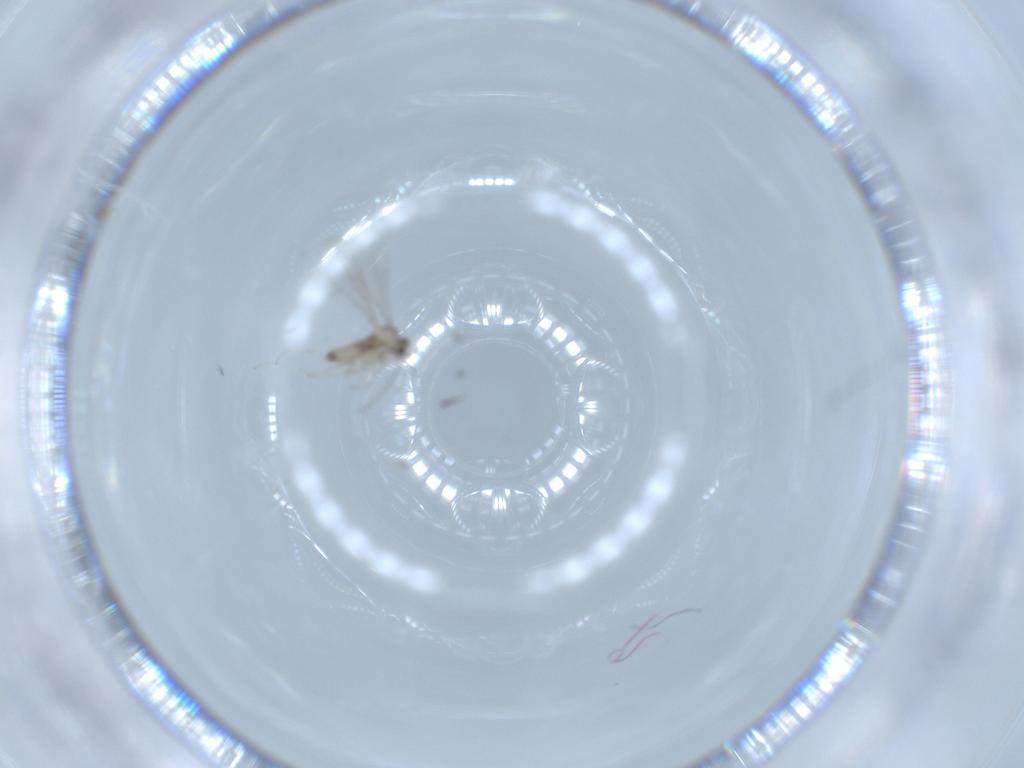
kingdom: Animalia
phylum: Arthropoda
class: Insecta
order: Diptera
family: Cecidomyiidae
